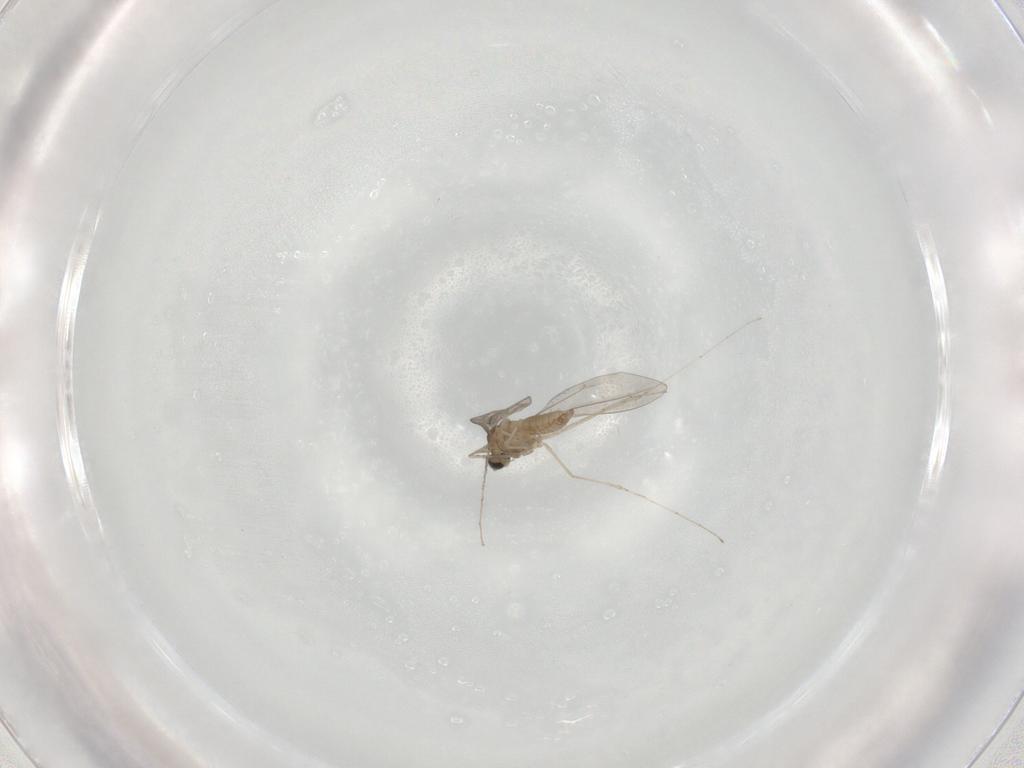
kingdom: Animalia
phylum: Arthropoda
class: Insecta
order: Diptera
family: Cecidomyiidae
